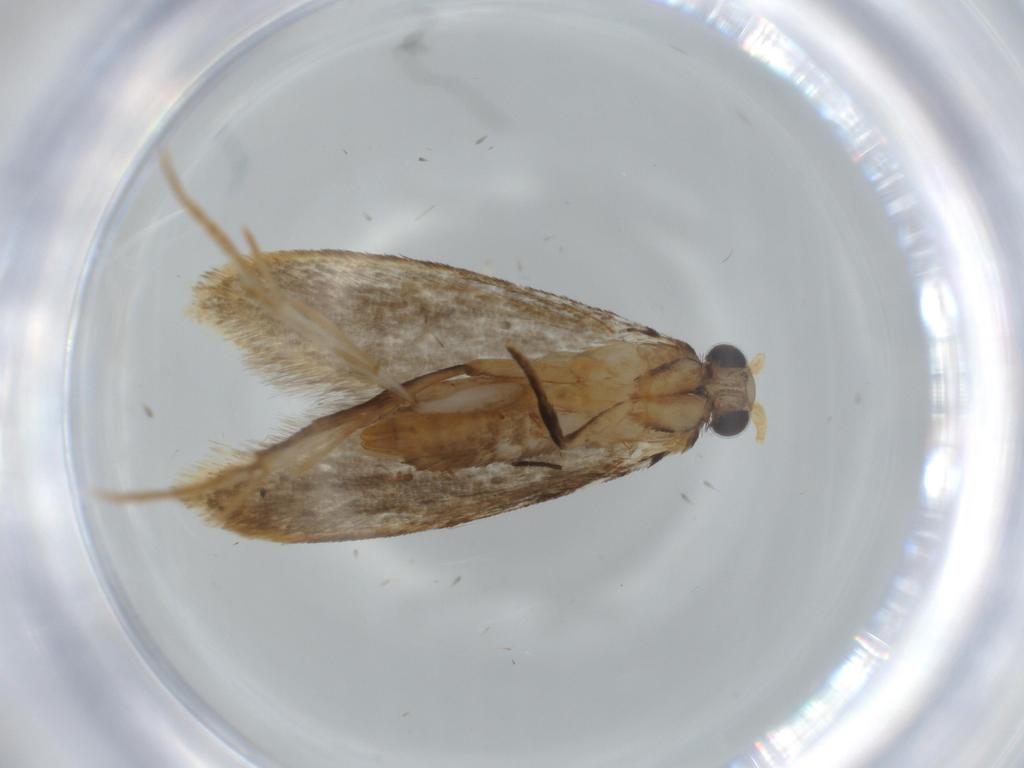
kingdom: Animalia
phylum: Arthropoda
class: Insecta
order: Lepidoptera
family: Tineidae
